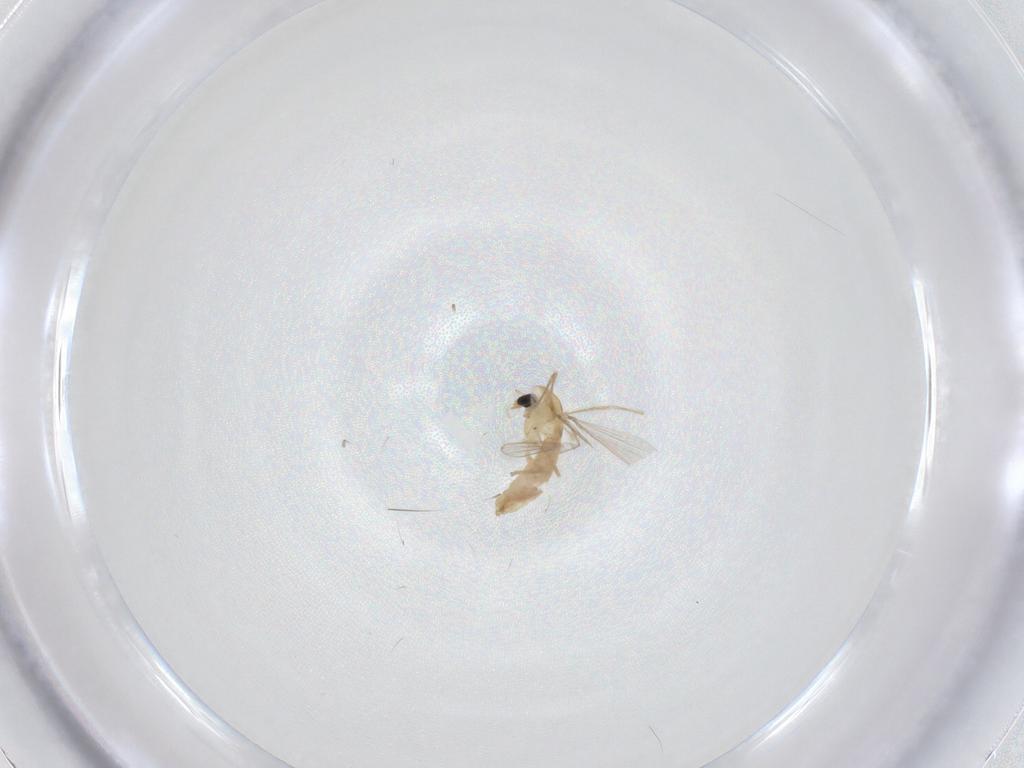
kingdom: Animalia
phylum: Arthropoda
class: Insecta
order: Diptera
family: Chironomidae
